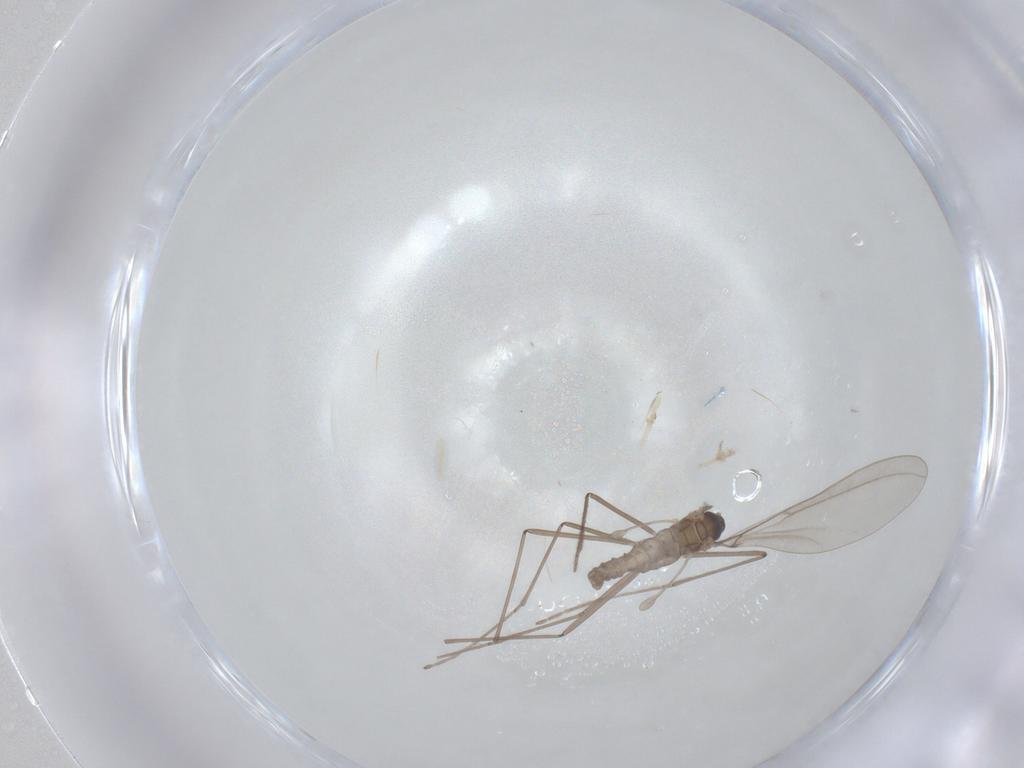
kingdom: Animalia
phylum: Arthropoda
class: Insecta
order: Diptera
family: Cecidomyiidae
